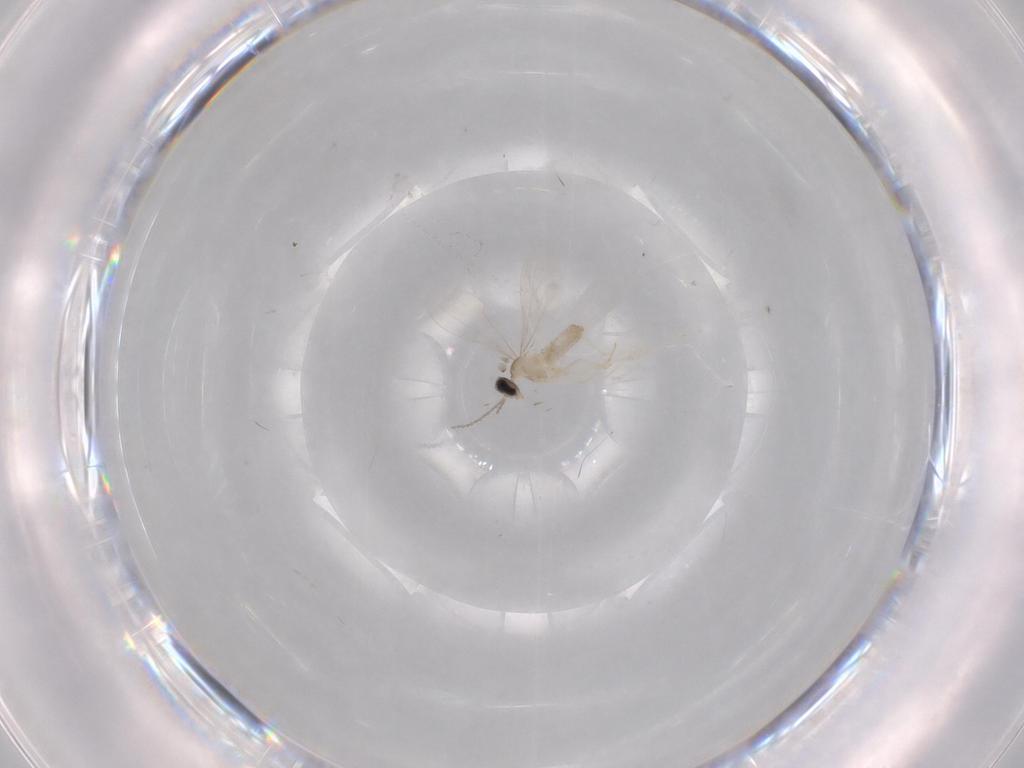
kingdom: Animalia
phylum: Arthropoda
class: Insecta
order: Diptera
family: Cecidomyiidae
